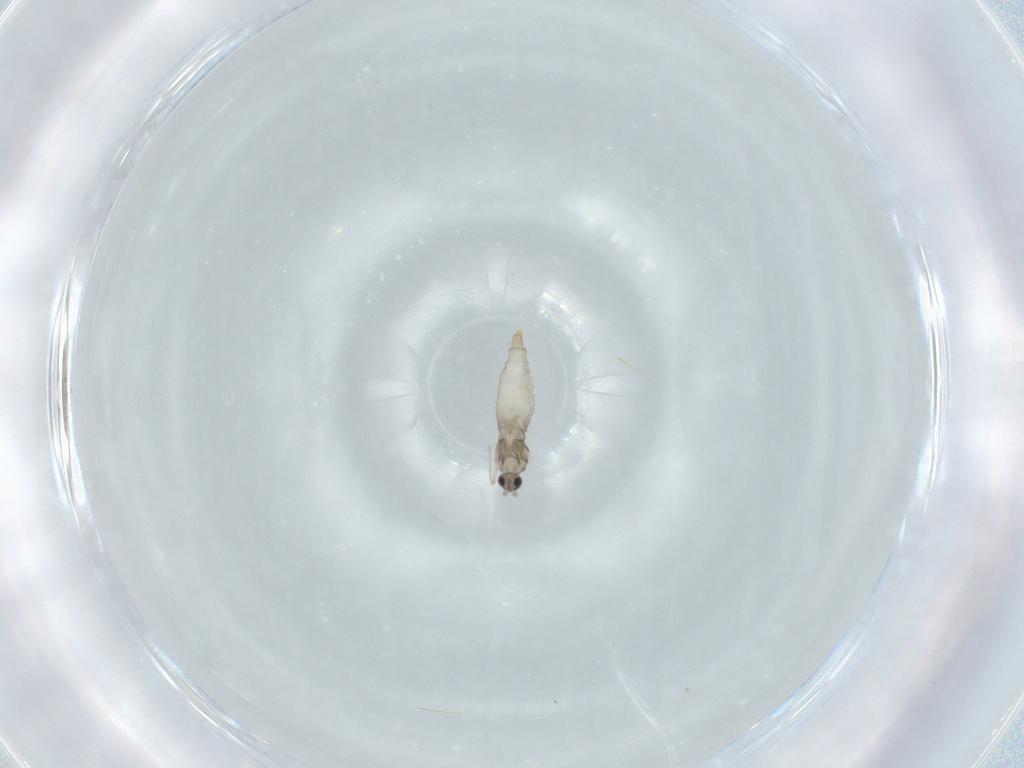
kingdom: Animalia
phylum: Arthropoda
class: Insecta
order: Diptera
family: Cecidomyiidae
